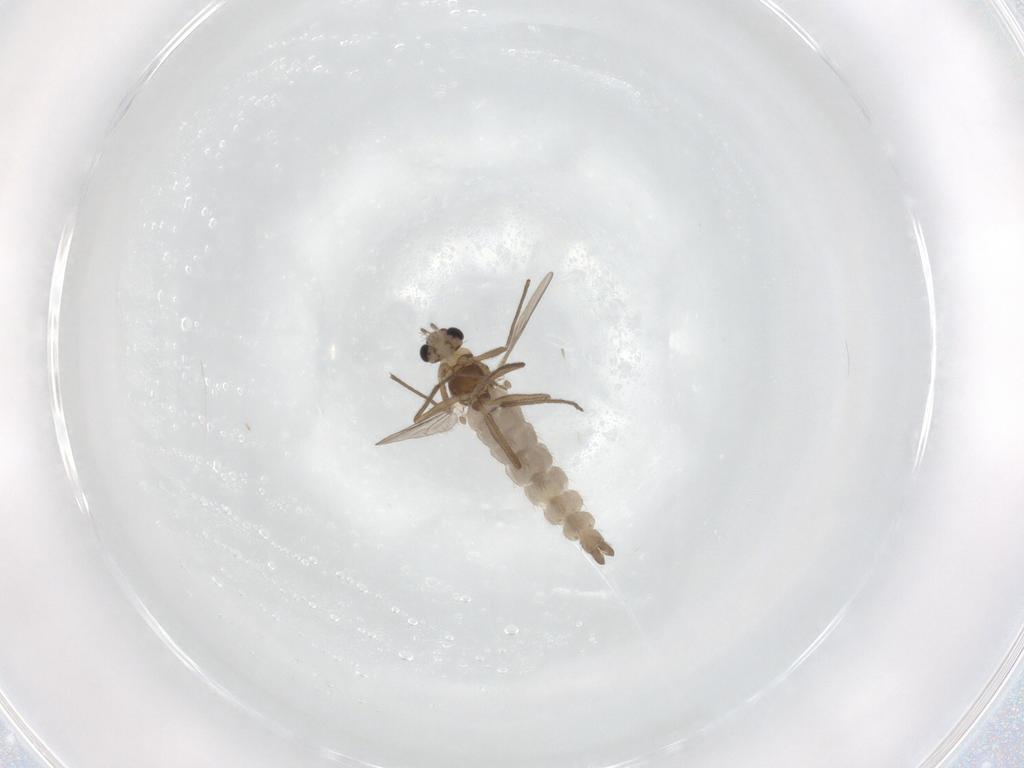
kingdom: Animalia
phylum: Arthropoda
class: Insecta
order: Diptera
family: Chironomidae
